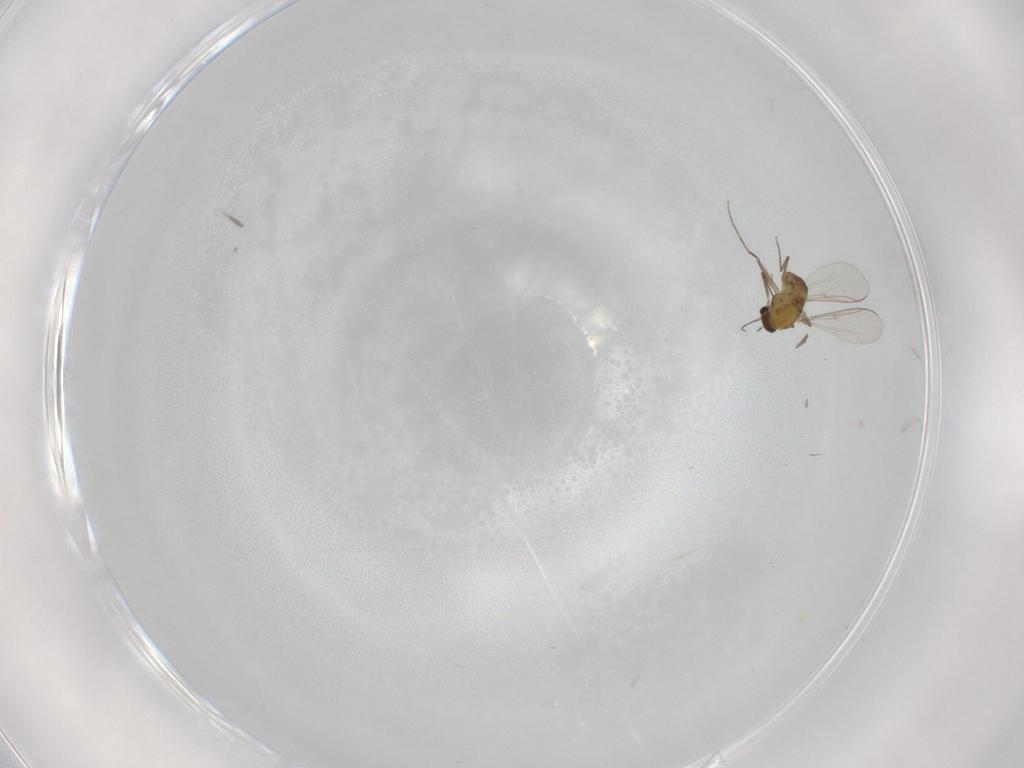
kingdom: Animalia
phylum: Arthropoda
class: Insecta
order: Diptera
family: Chironomidae
